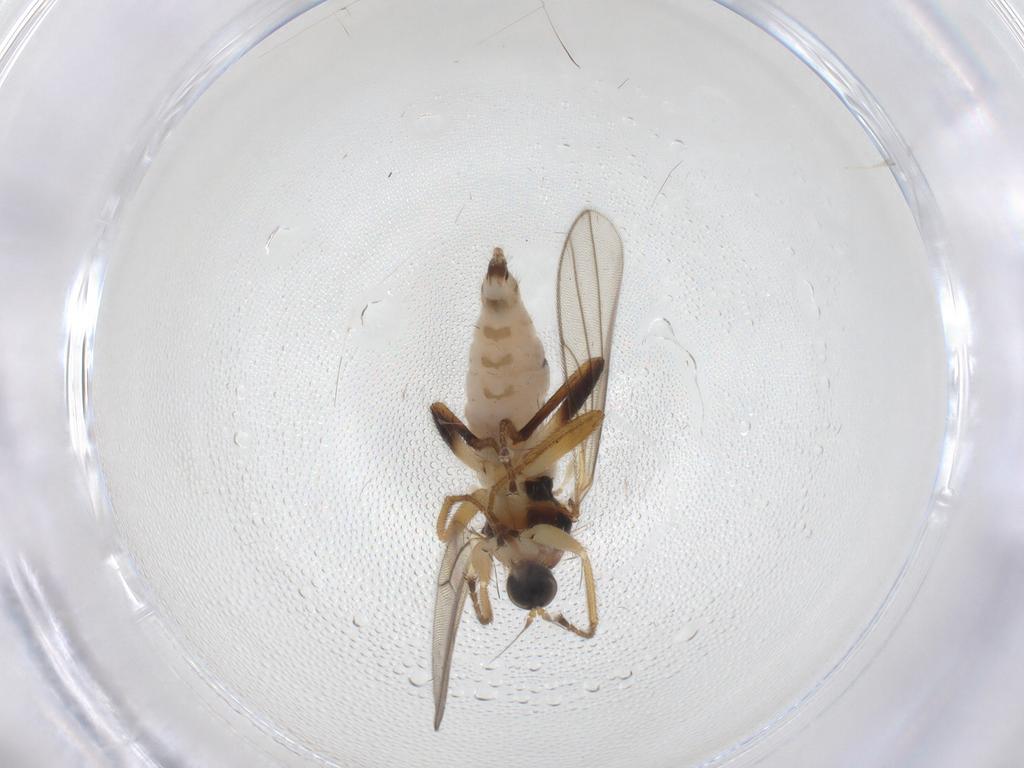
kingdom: Animalia
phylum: Arthropoda
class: Insecta
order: Diptera
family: Hybotidae
